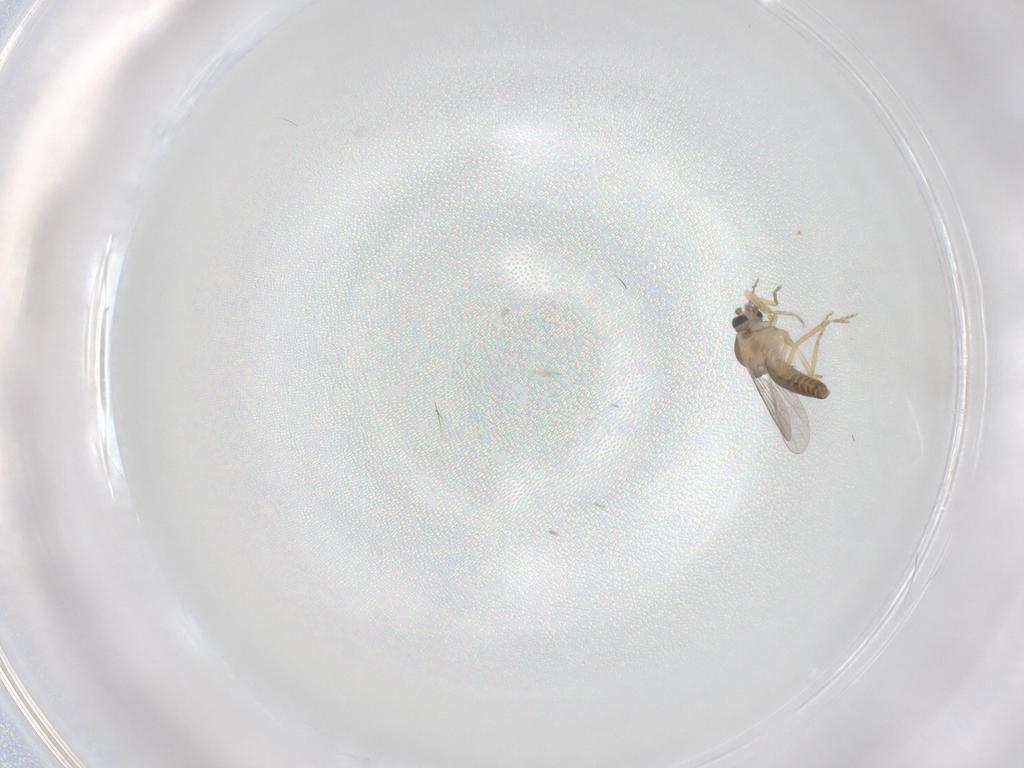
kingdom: Animalia
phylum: Arthropoda
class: Insecta
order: Diptera
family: Ceratopogonidae
